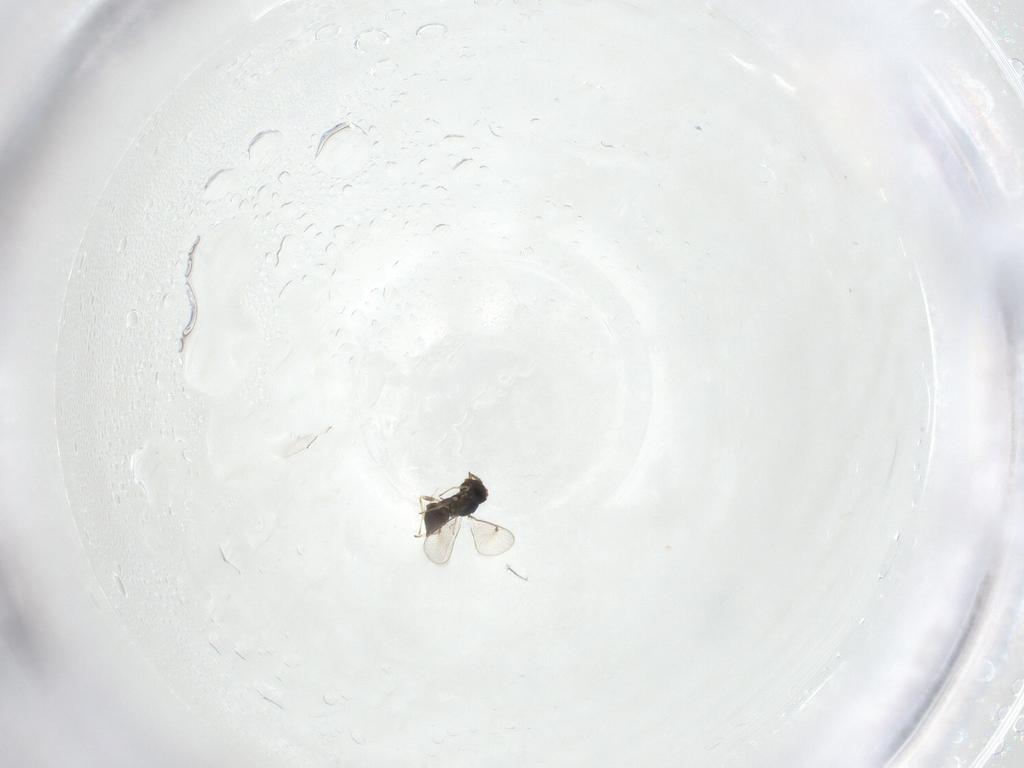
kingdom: Animalia
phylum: Arthropoda
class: Insecta
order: Hymenoptera
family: Eulophidae
